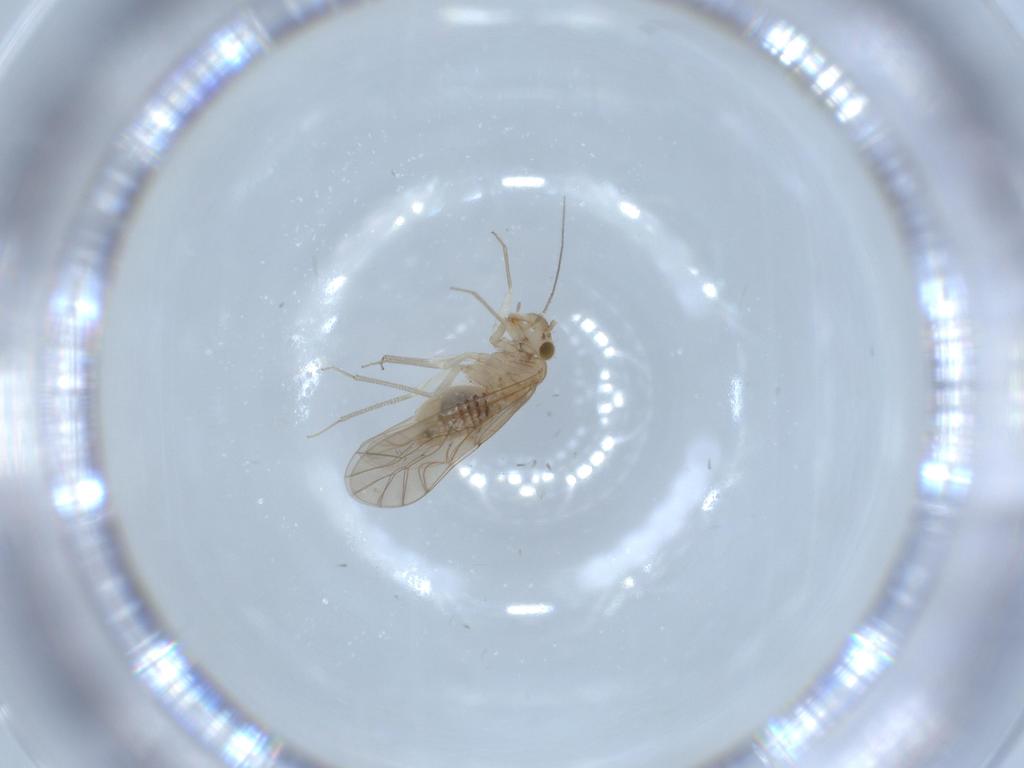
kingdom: Animalia
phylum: Arthropoda
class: Insecta
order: Psocodea
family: Lachesillidae
